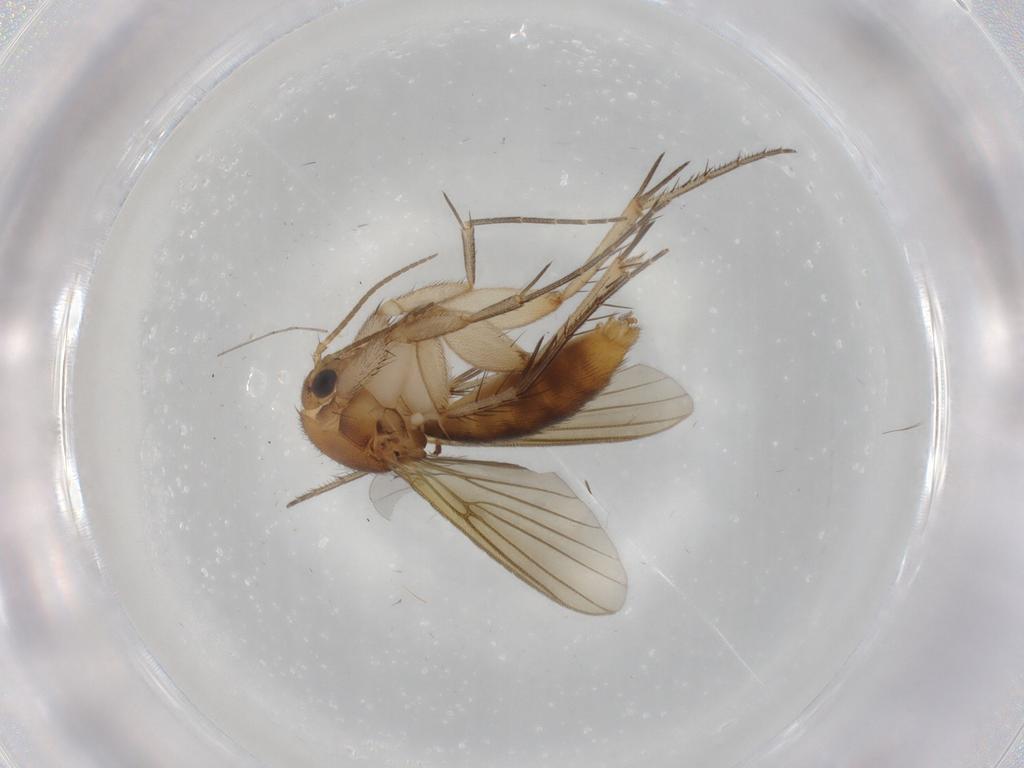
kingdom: Animalia
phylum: Arthropoda
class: Insecta
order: Diptera
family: Mycetophilidae
